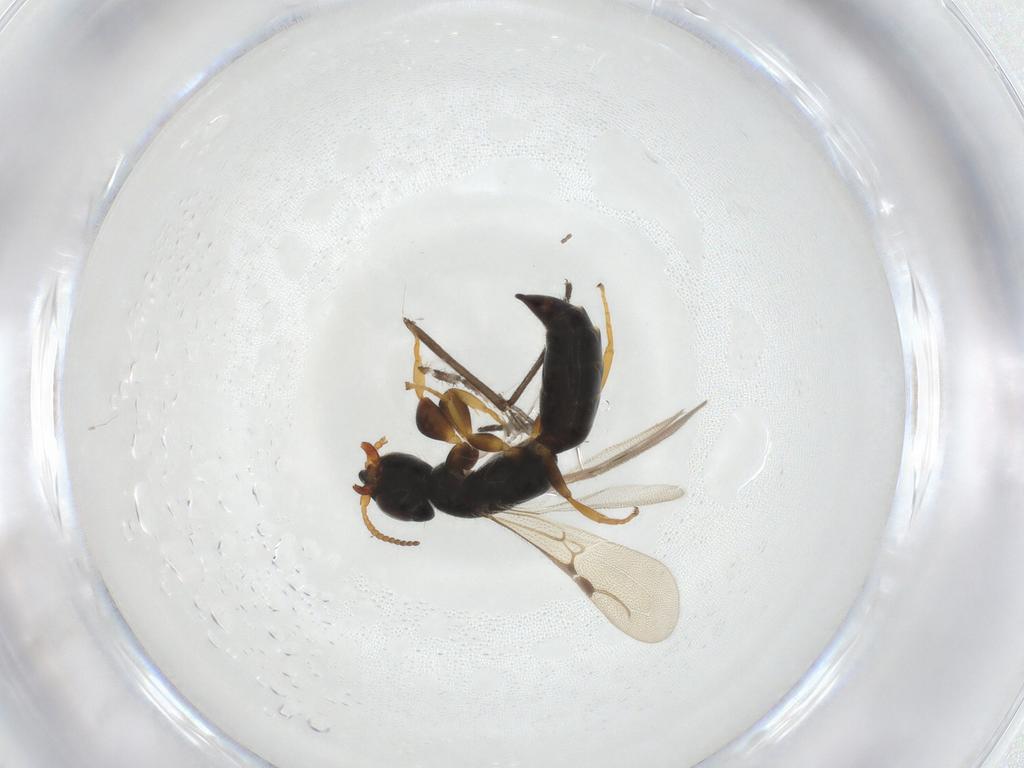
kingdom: Animalia
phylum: Arthropoda
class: Insecta
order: Hymenoptera
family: Bethylidae
